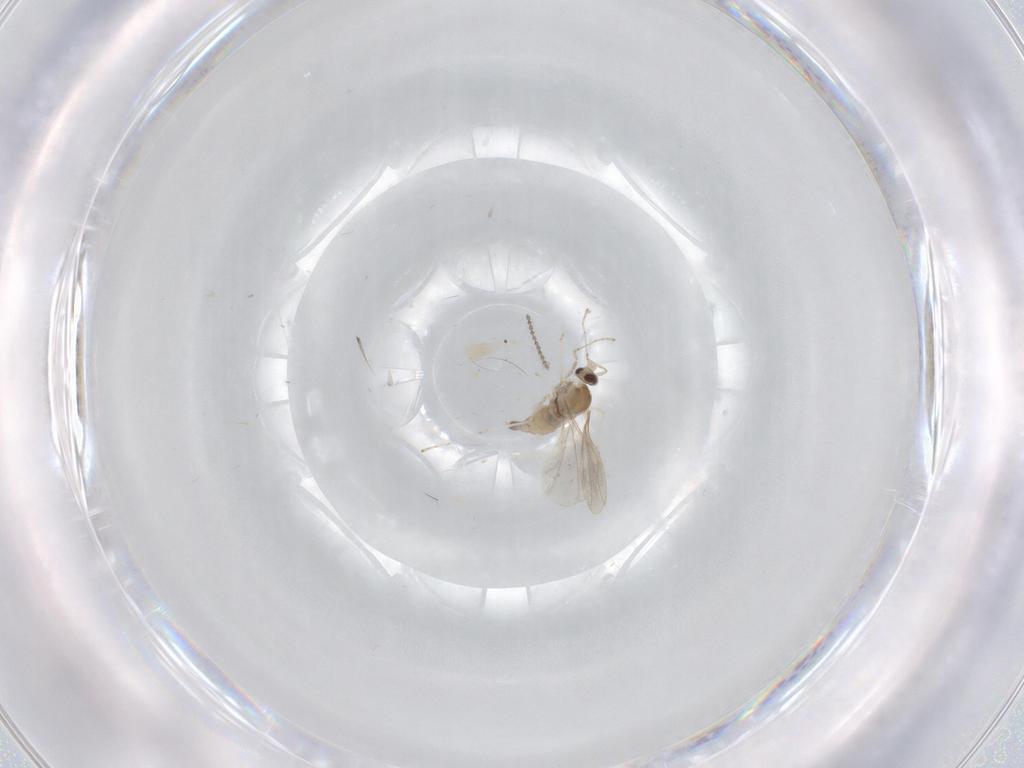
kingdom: Animalia
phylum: Arthropoda
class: Insecta
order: Diptera
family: Cecidomyiidae
